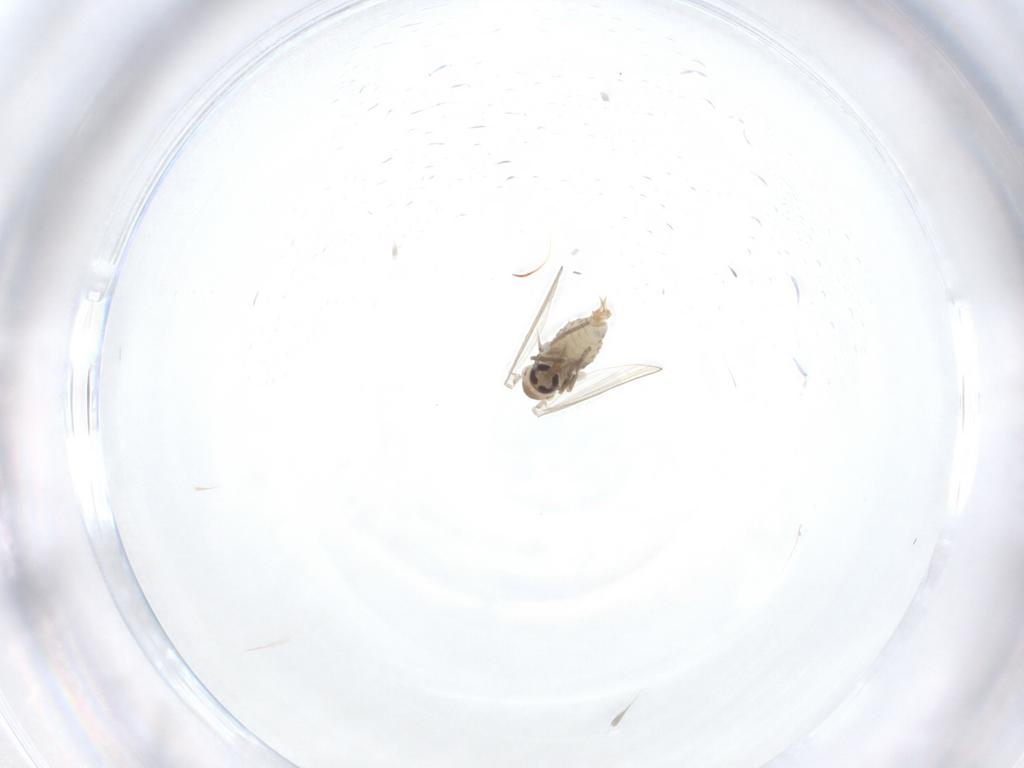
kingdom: Animalia
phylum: Arthropoda
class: Insecta
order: Diptera
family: Psychodidae
